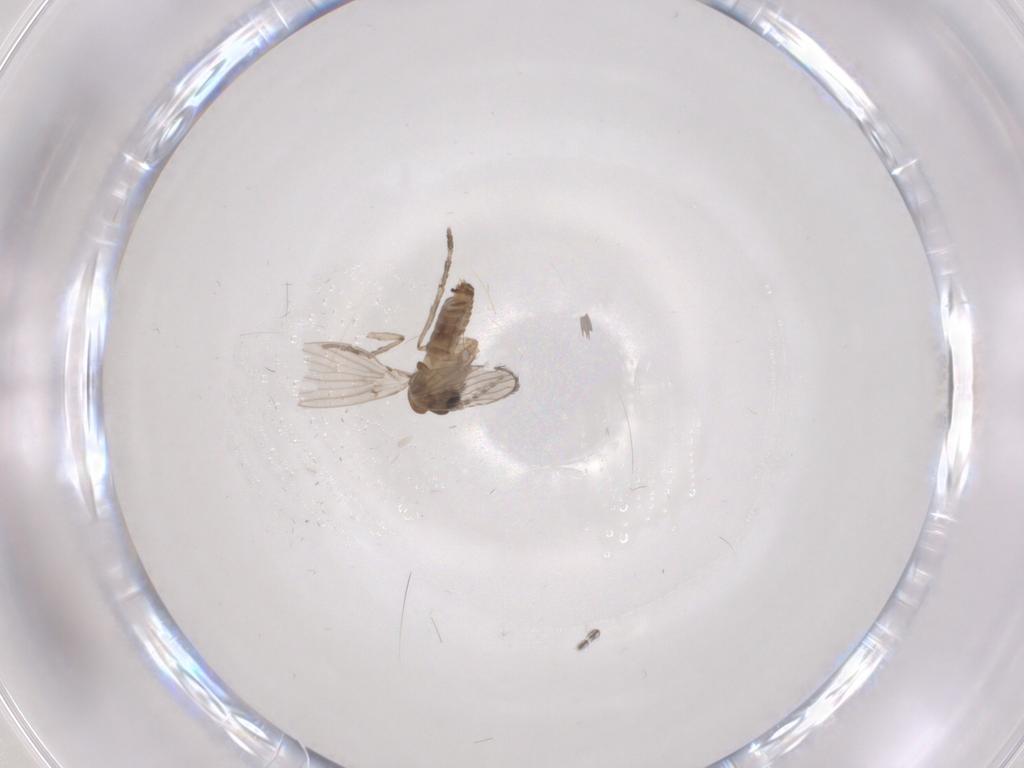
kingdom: Animalia
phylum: Arthropoda
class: Insecta
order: Diptera
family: Psychodidae
